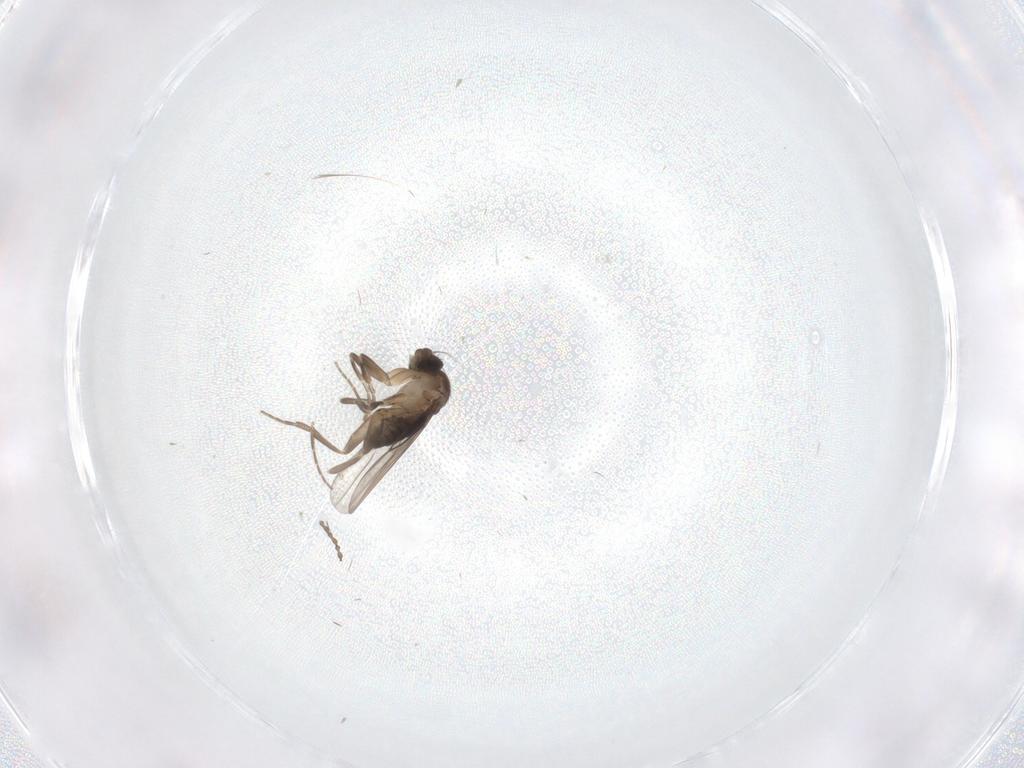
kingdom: Animalia
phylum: Arthropoda
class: Insecta
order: Diptera
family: Phoridae
